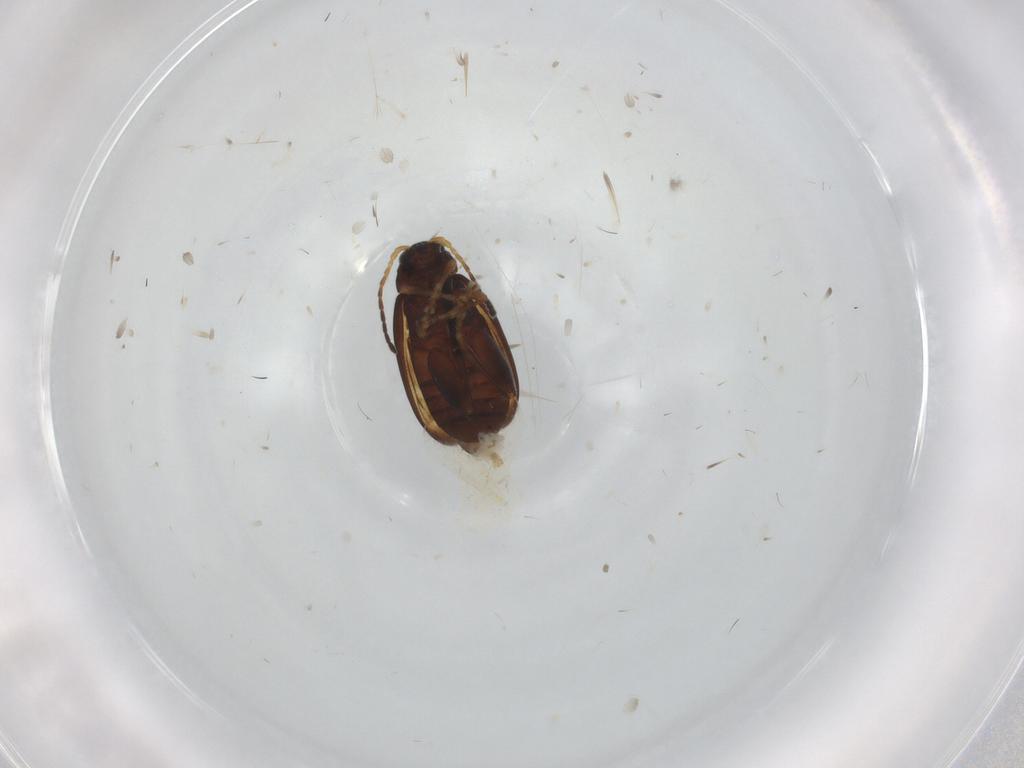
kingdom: Animalia
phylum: Arthropoda
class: Insecta
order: Coleoptera
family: Chrysomelidae
